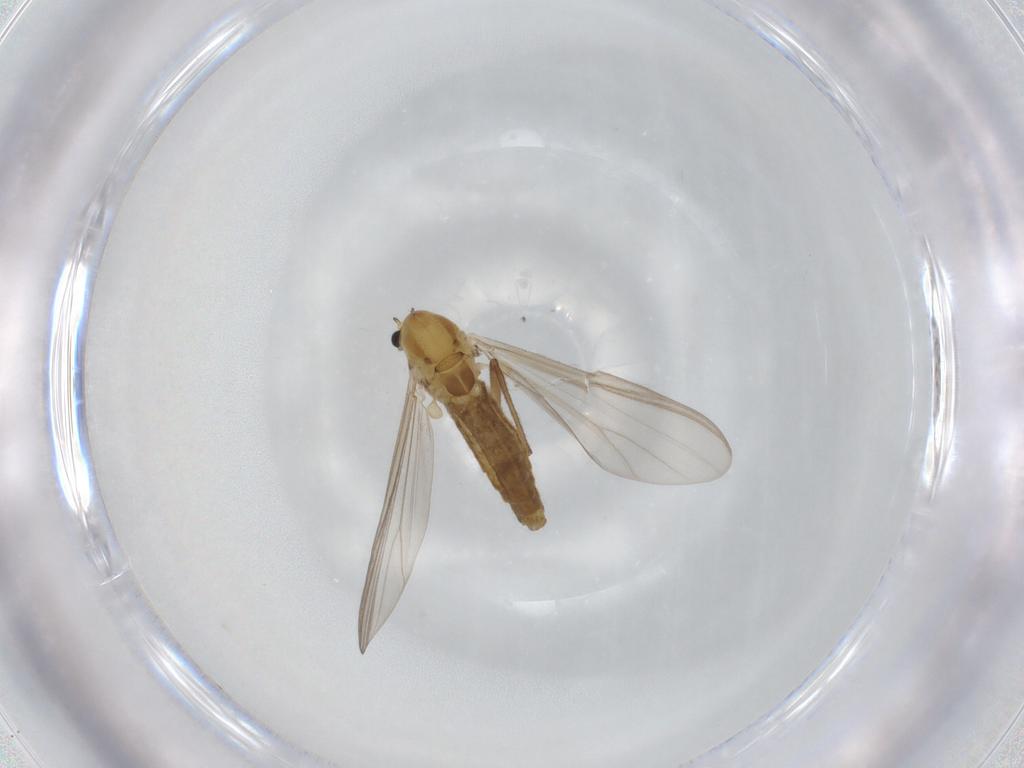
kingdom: Animalia
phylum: Arthropoda
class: Insecta
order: Diptera
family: Chironomidae
